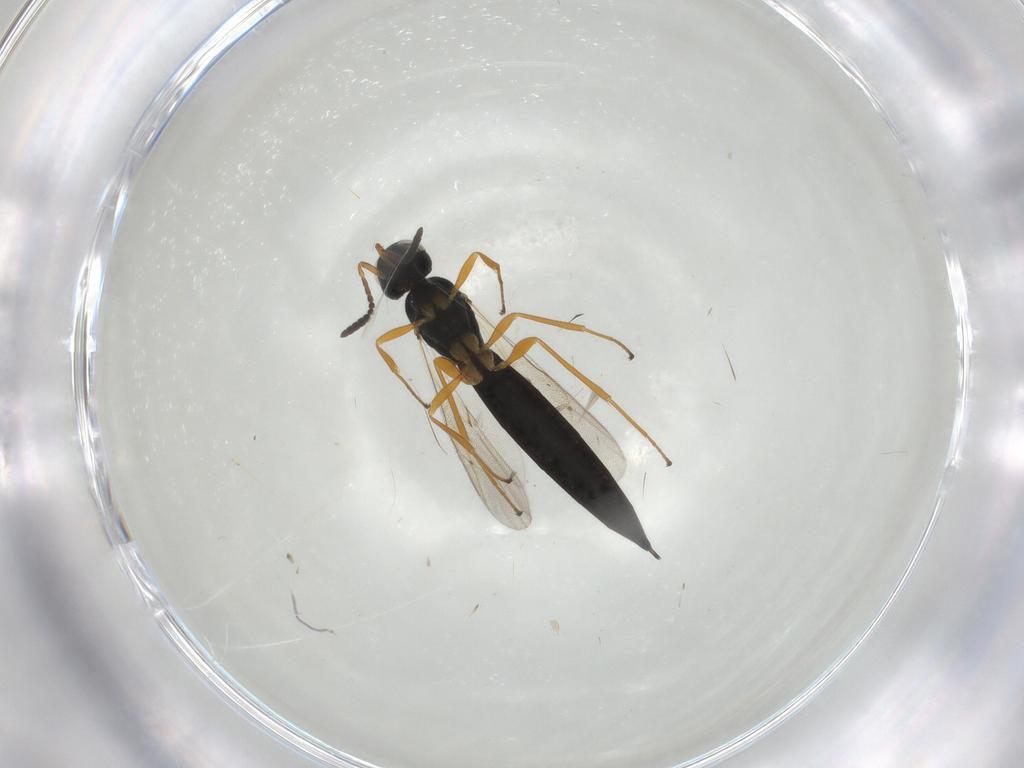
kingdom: Animalia
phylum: Arthropoda
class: Insecta
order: Hymenoptera
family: Scelionidae
